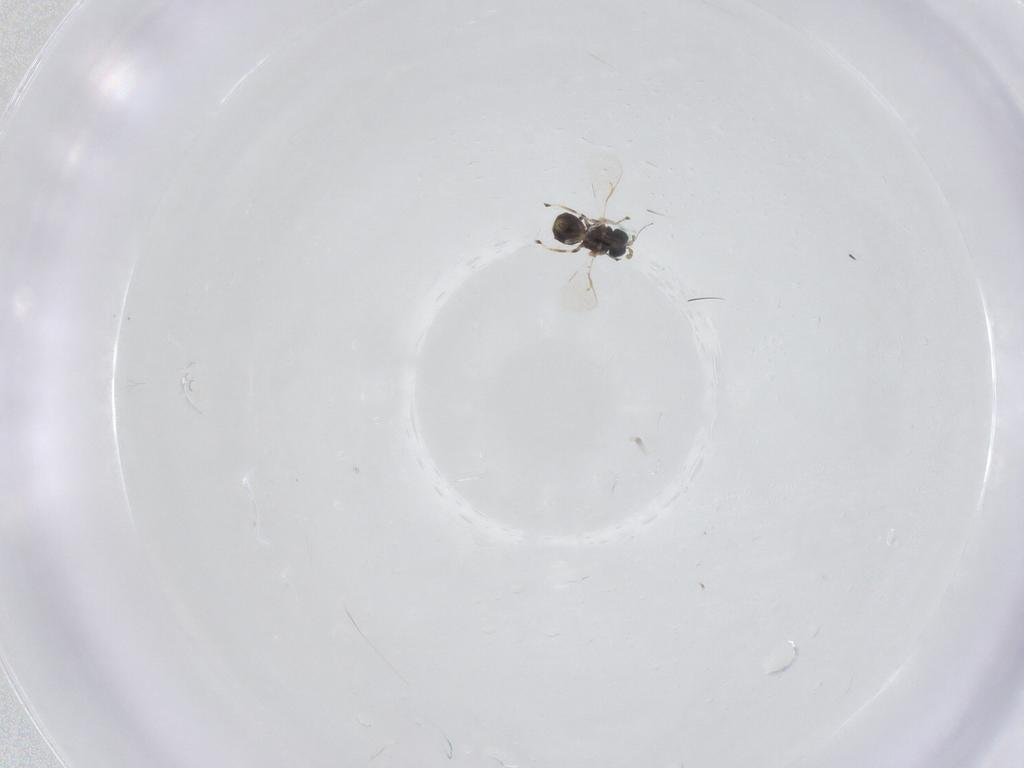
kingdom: Animalia
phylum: Arthropoda
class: Insecta
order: Hymenoptera
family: Eulophidae
